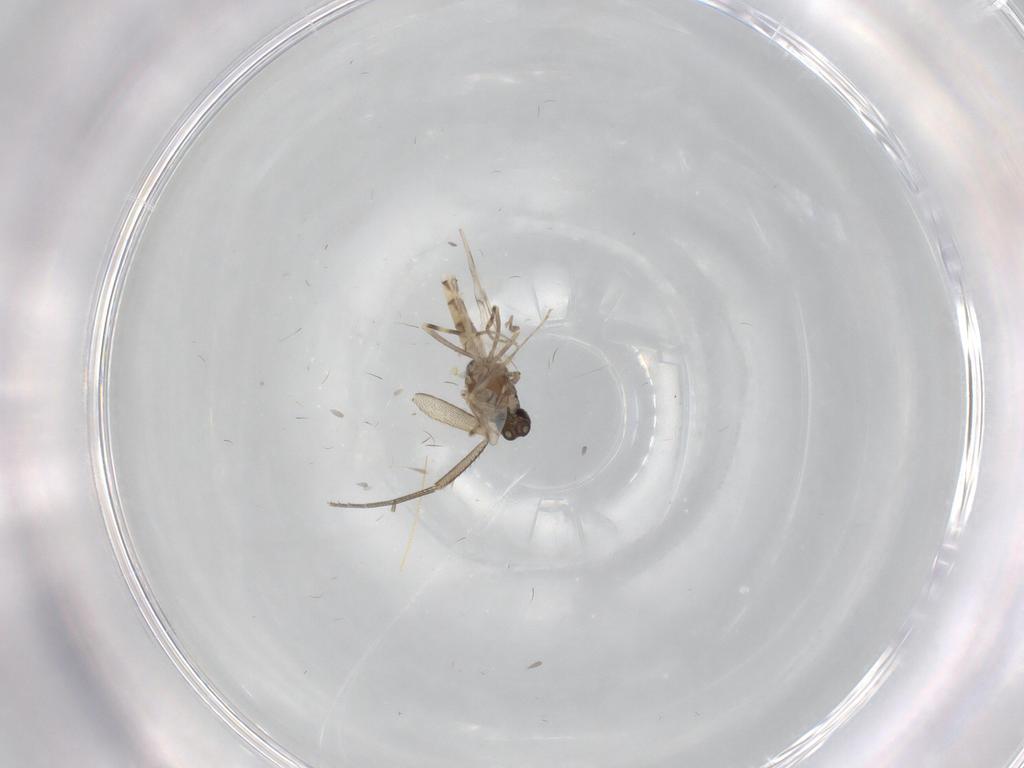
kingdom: Animalia
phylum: Arthropoda
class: Insecta
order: Diptera
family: Ceratopogonidae
